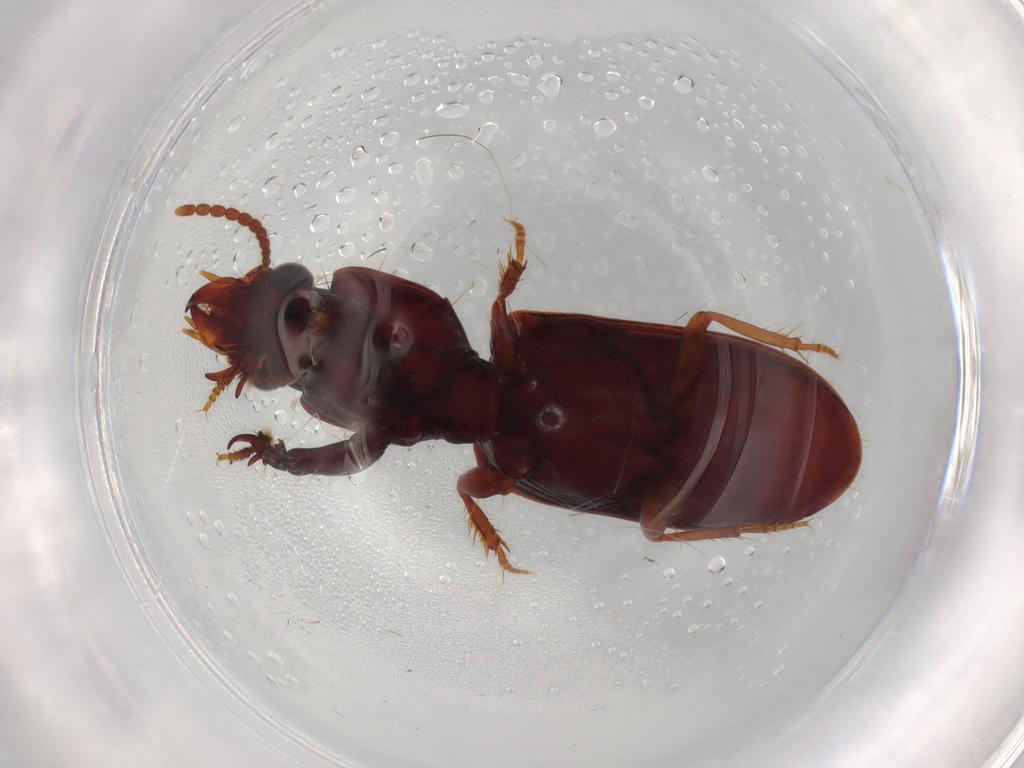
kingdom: Animalia
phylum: Arthropoda
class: Insecta
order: Coleoptera
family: Carabidae
